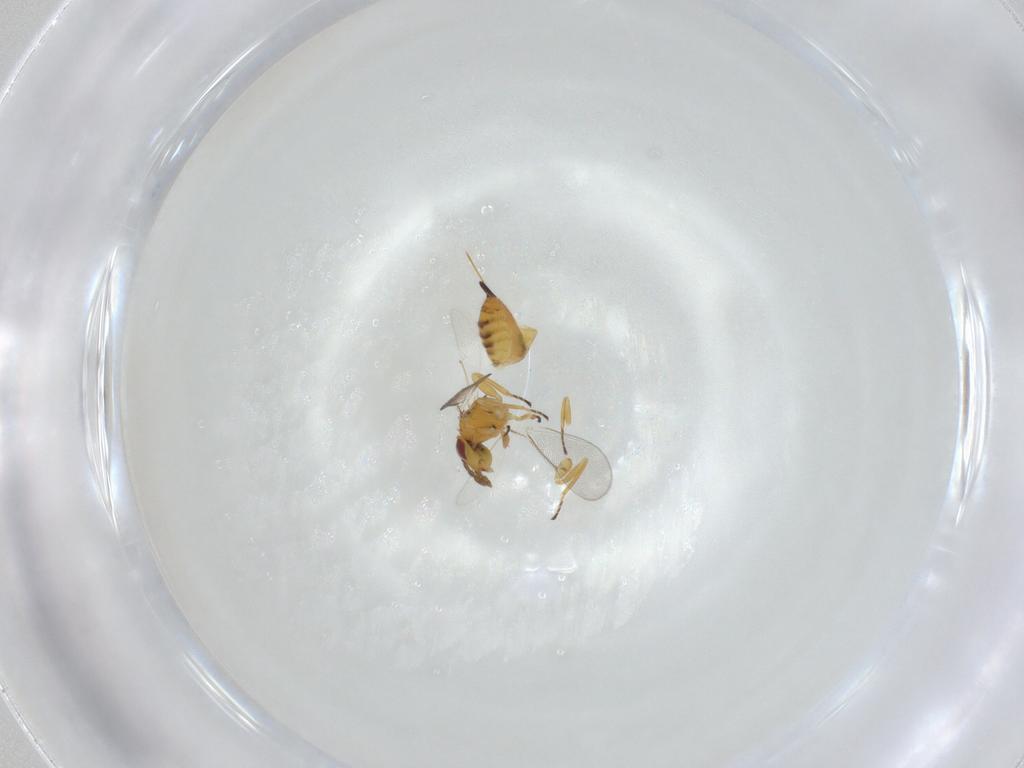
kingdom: Animalia
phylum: Arthropoda
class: Insecta
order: Hymenoptera
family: Eulophidae
